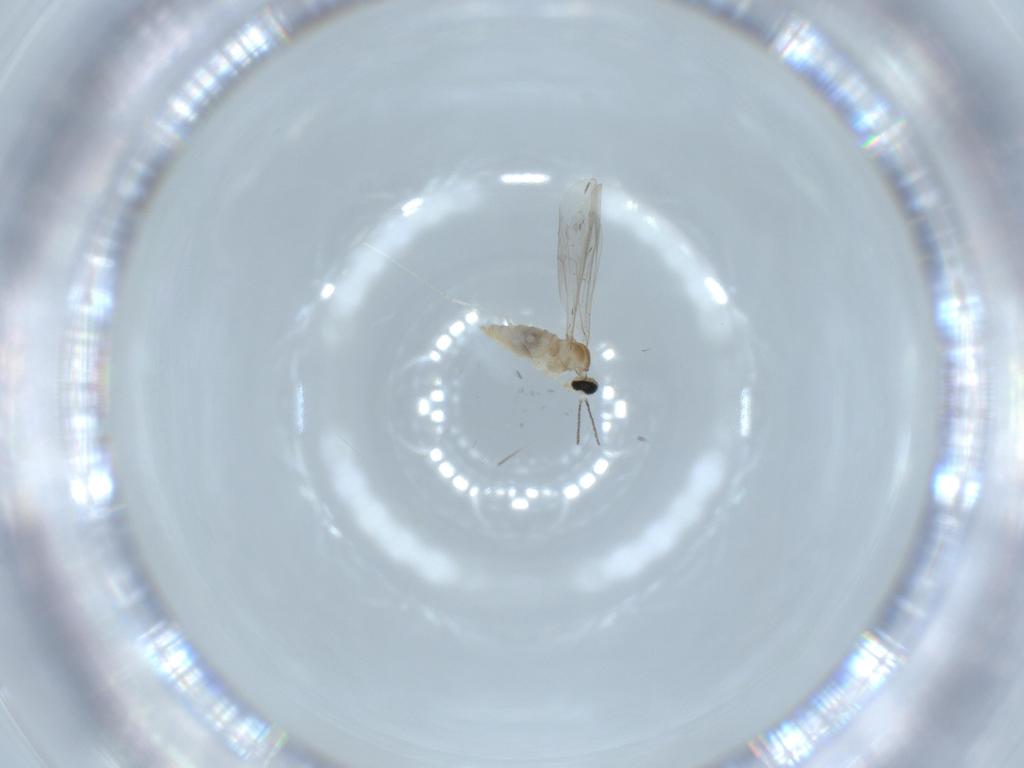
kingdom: Animalia
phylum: Arthropoda
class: Insecta
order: Diptera
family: Cecidomyiidae
